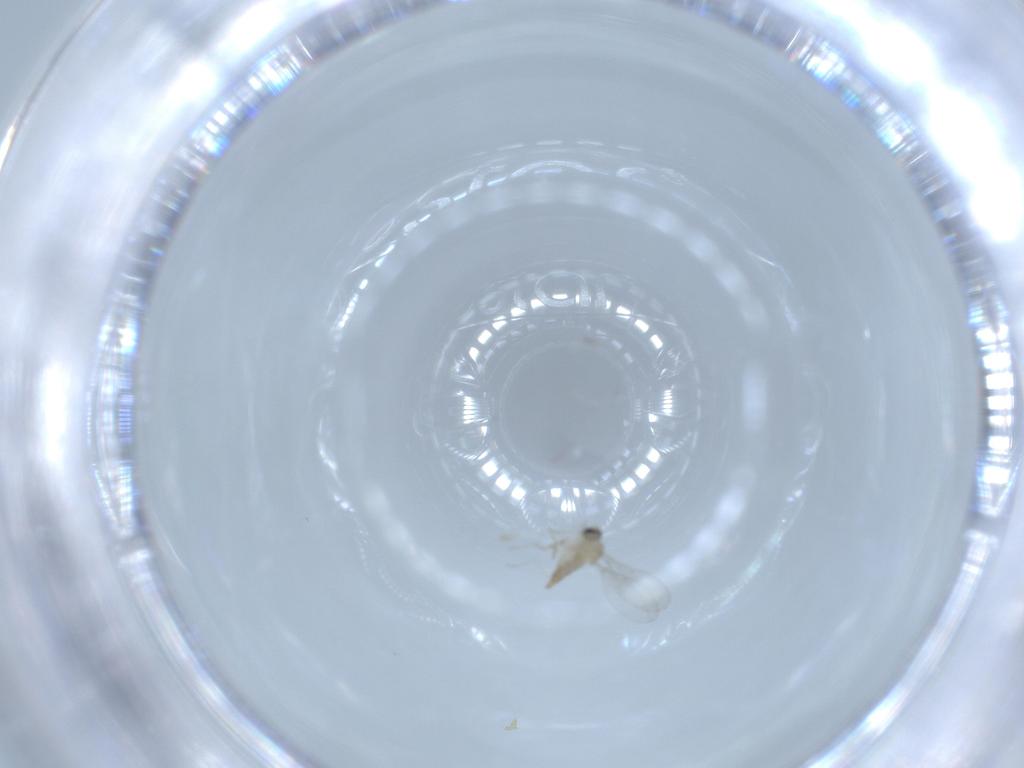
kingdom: Animalia
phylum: Arthropoda
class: Insecta
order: Diptera
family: Cecidomyiidae
